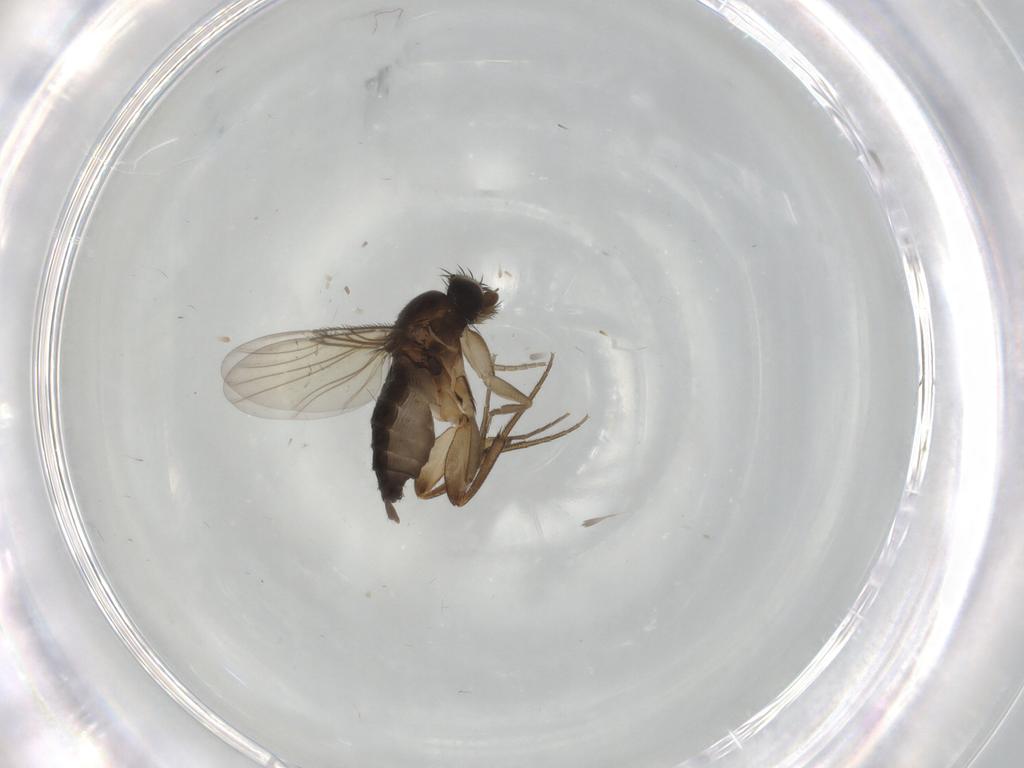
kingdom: Animalia
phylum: Arthropoda
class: Insecta
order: Diptera
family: Phoridae
